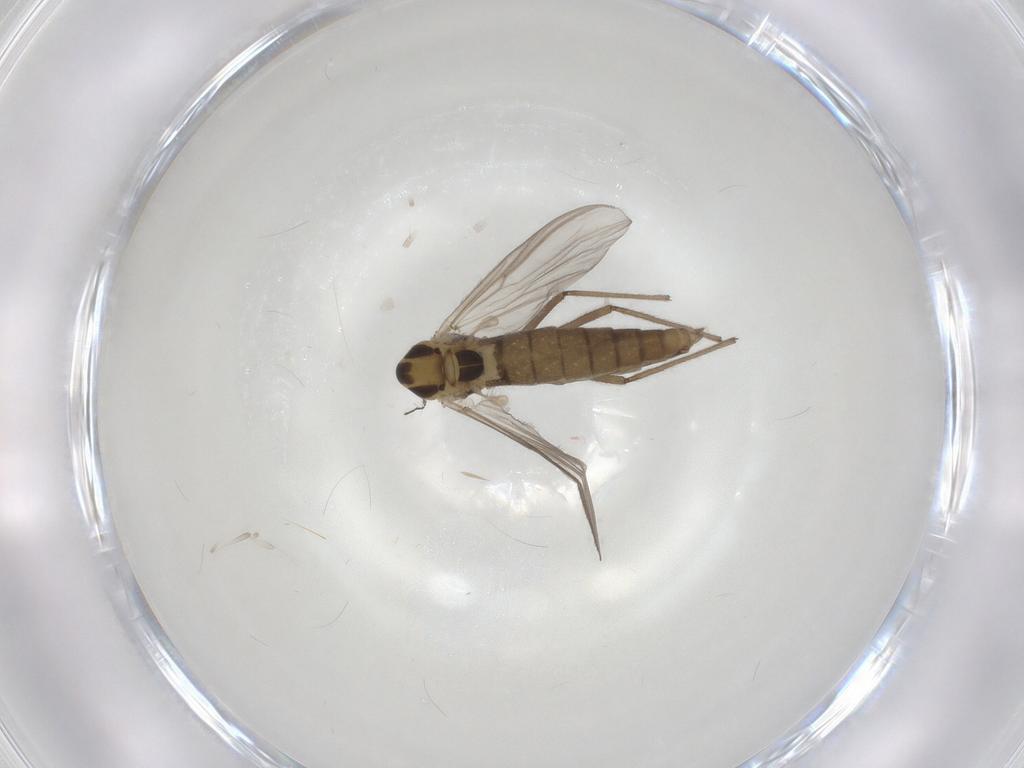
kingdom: Animalia
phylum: Arthropoda
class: Insecta
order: Diptera
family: Chironomidae
